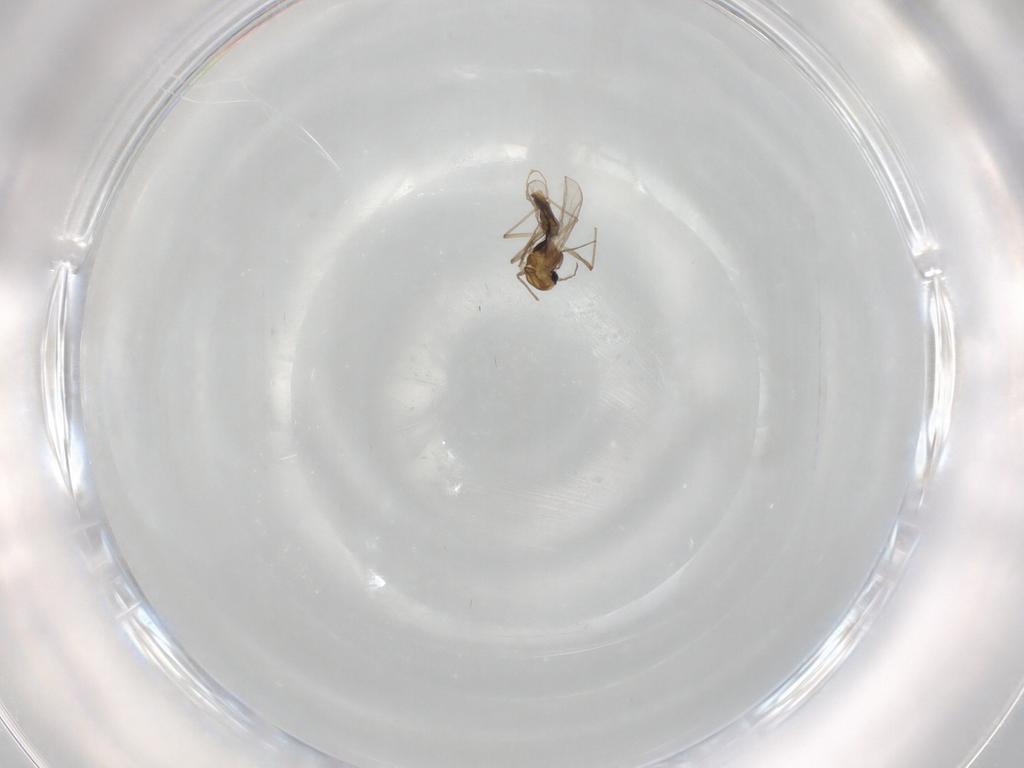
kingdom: Animalia
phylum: Arthropoda
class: Insecta
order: Diptera
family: Chironomidae
